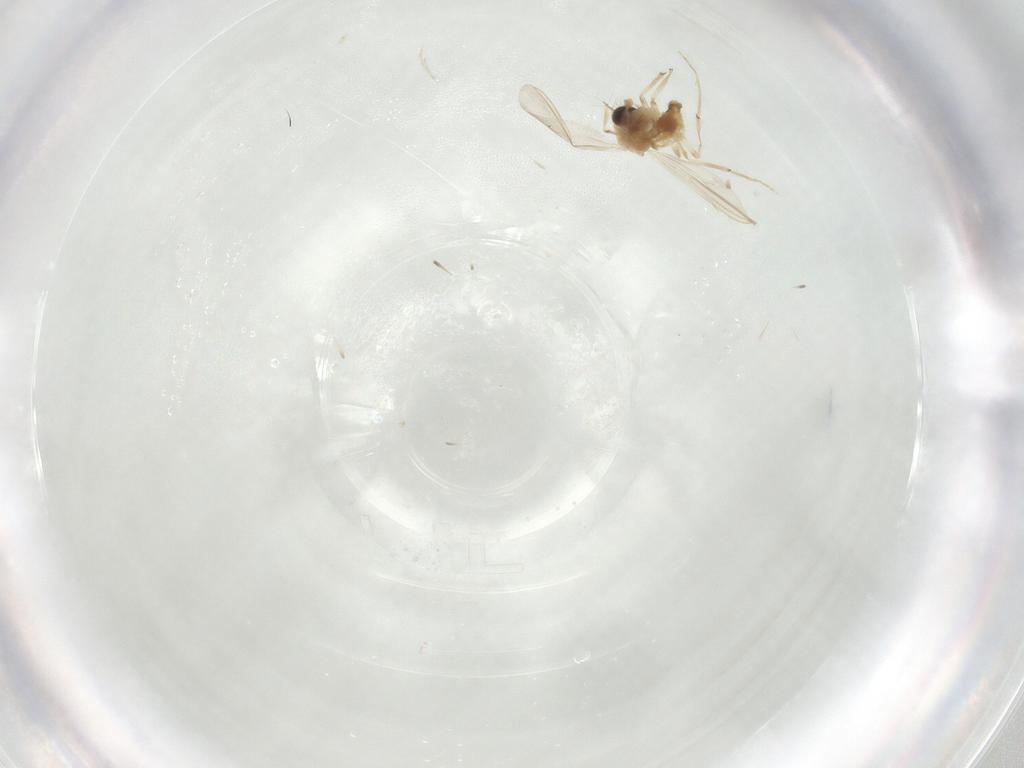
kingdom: Animalia
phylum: Arthropoda
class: Insecta
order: Diptera
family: Chironomidae
